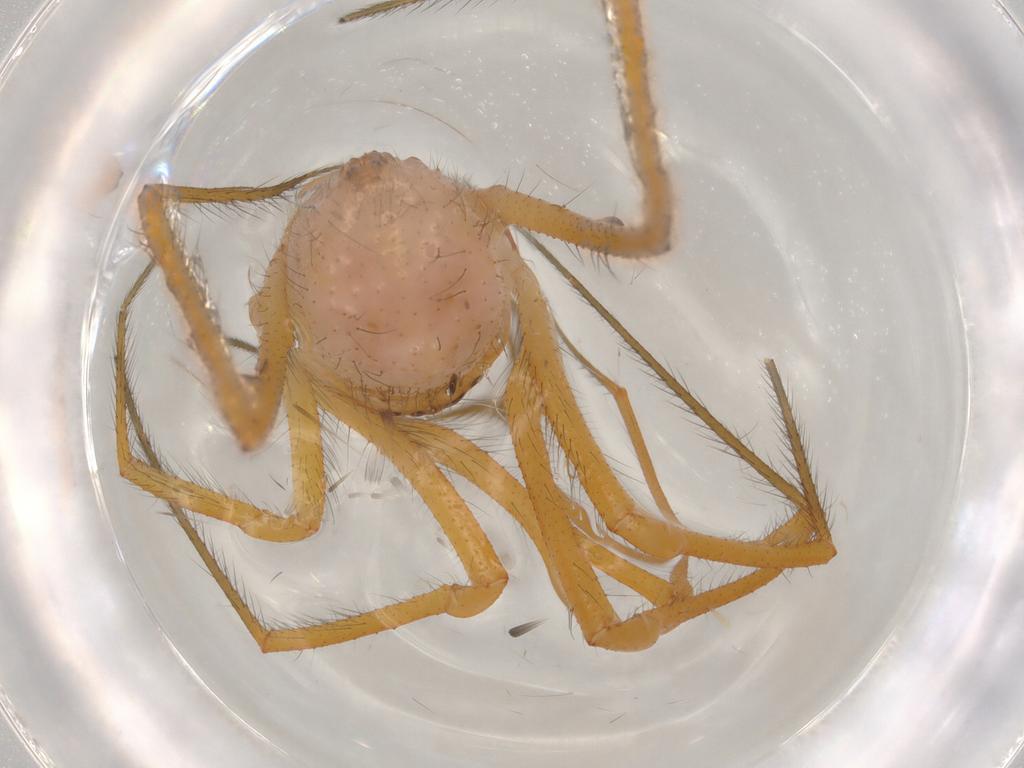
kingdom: Animalia
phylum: Arthropoda
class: Arachnida
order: Araneae
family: Theridiidae
